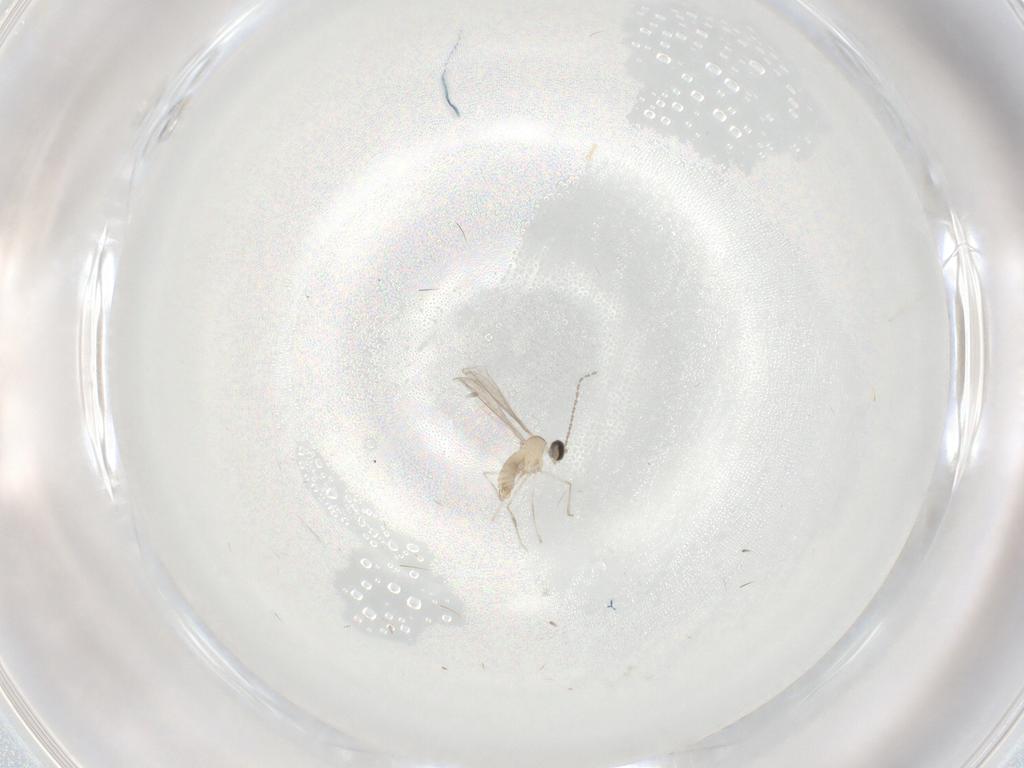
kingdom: Animalia
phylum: Arthropoda
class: Insecta
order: Diptera
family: Cecidomyiidae
